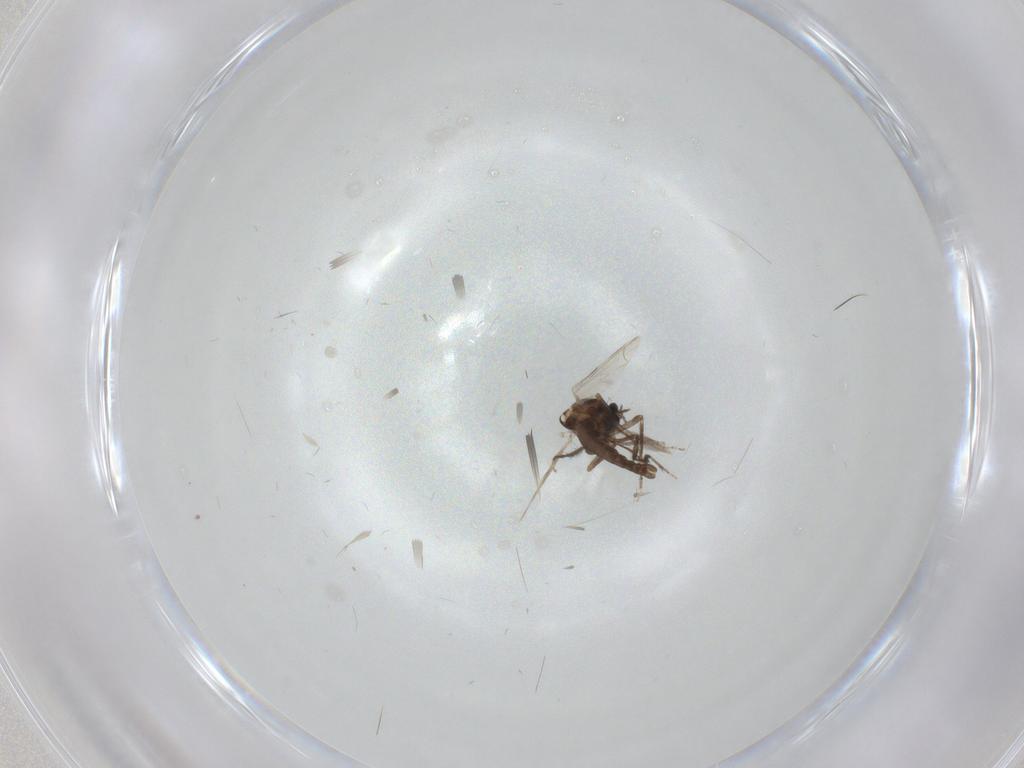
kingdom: Animalia
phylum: Arthropoda
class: Insecta
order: Diptera
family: Ceratopogonidae
